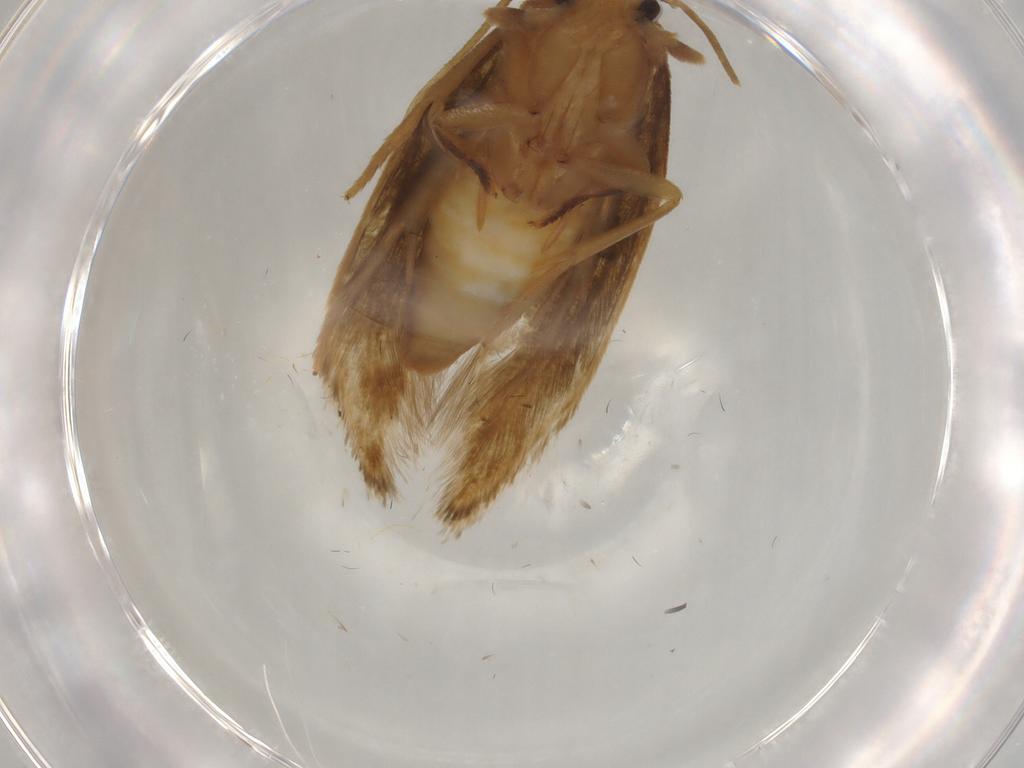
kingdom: Animalia
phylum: Arthropoda
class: Insecta
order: Lepidoptera
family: Tineidae
